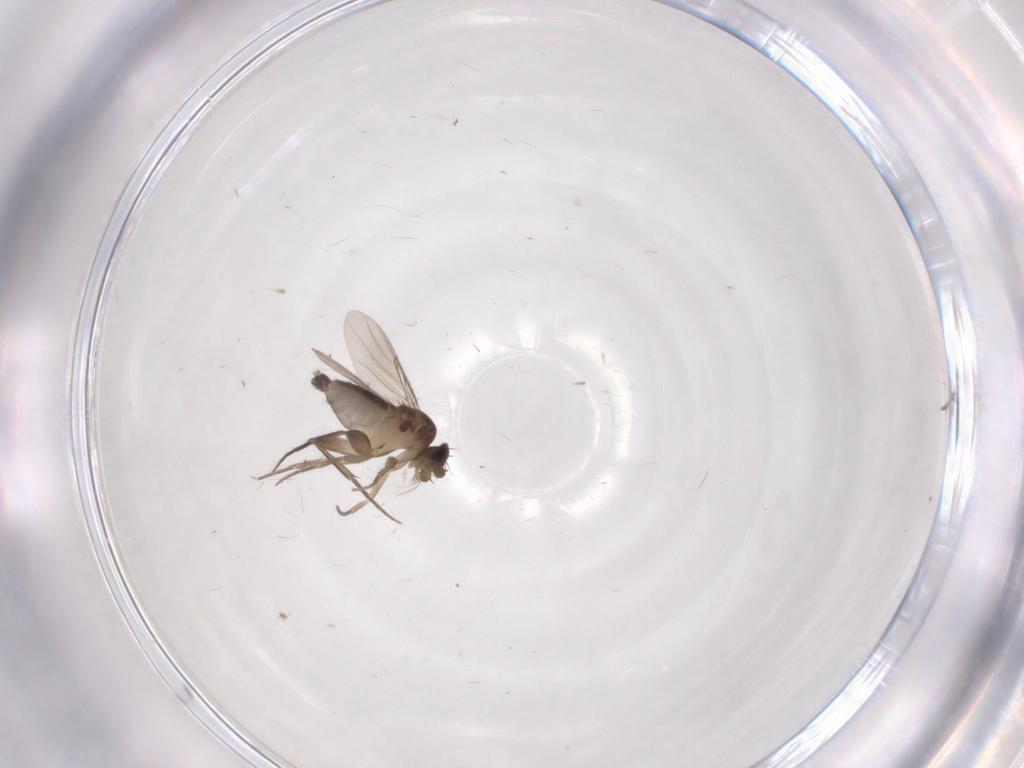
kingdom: Animalia
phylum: Arthropoda
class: Insecta
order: Diptera
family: Phoridae
